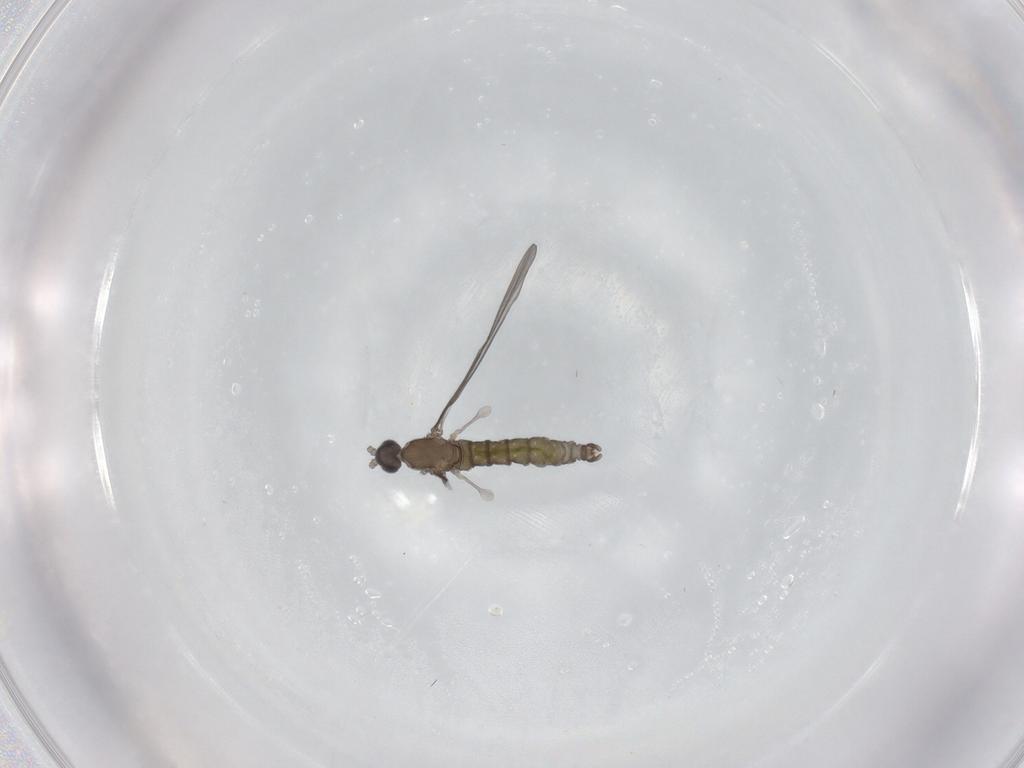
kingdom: Animalia
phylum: Arthropoda
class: Insecta
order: Diptera
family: Cecidomyiidae
